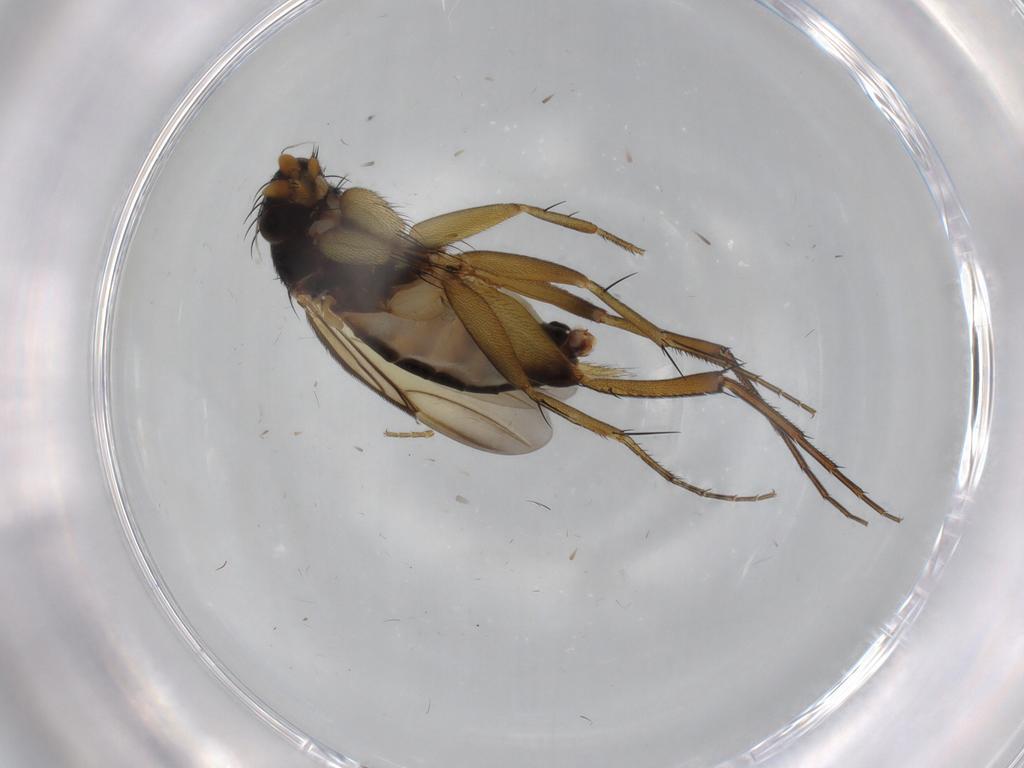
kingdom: Animalia
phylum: Arthropoda
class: Insecta
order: Diptera
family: Phoridae
